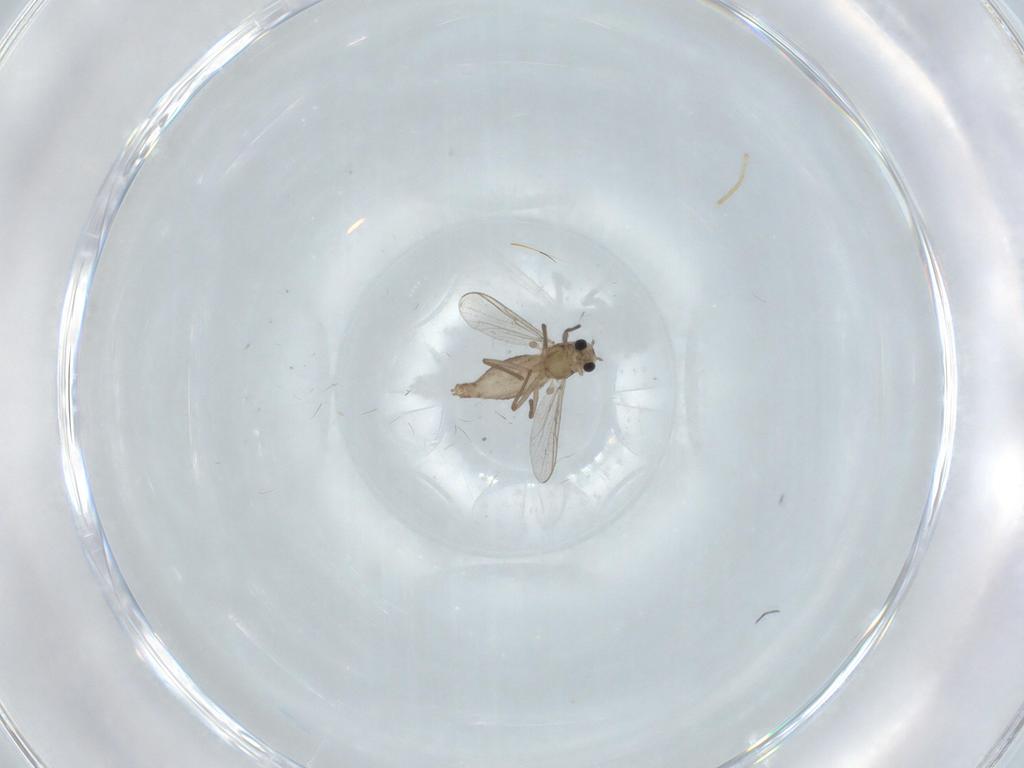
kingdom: Animalia
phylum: Arthropoda
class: Insecta
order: Diptera
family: Chironomidae
